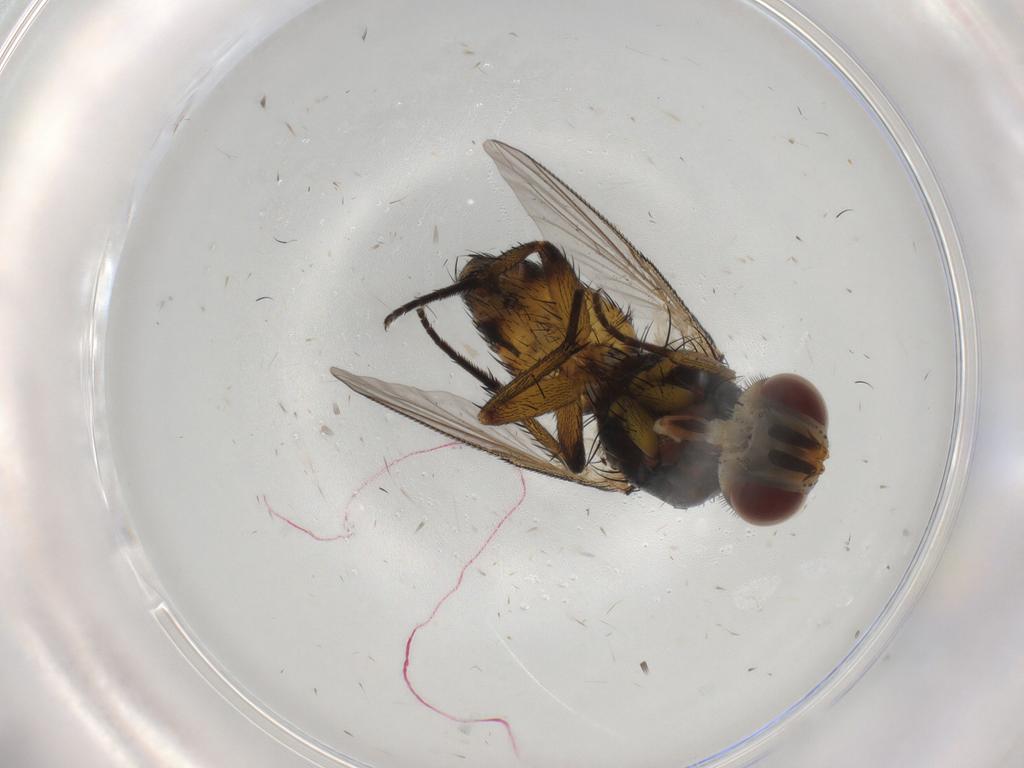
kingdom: Animalia
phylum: Arthropoda
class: Insecta
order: Diptera
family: Tachinidae
